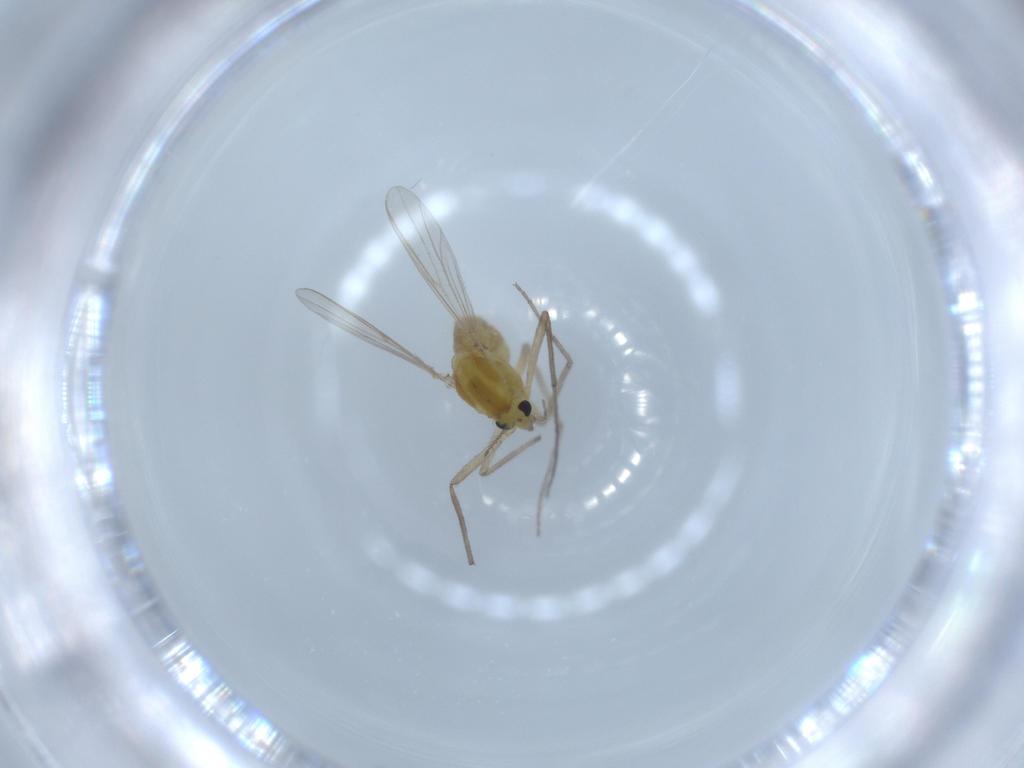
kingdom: Animalia
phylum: Arthropoda
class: Insecta
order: Diptera
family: Chironomidae
